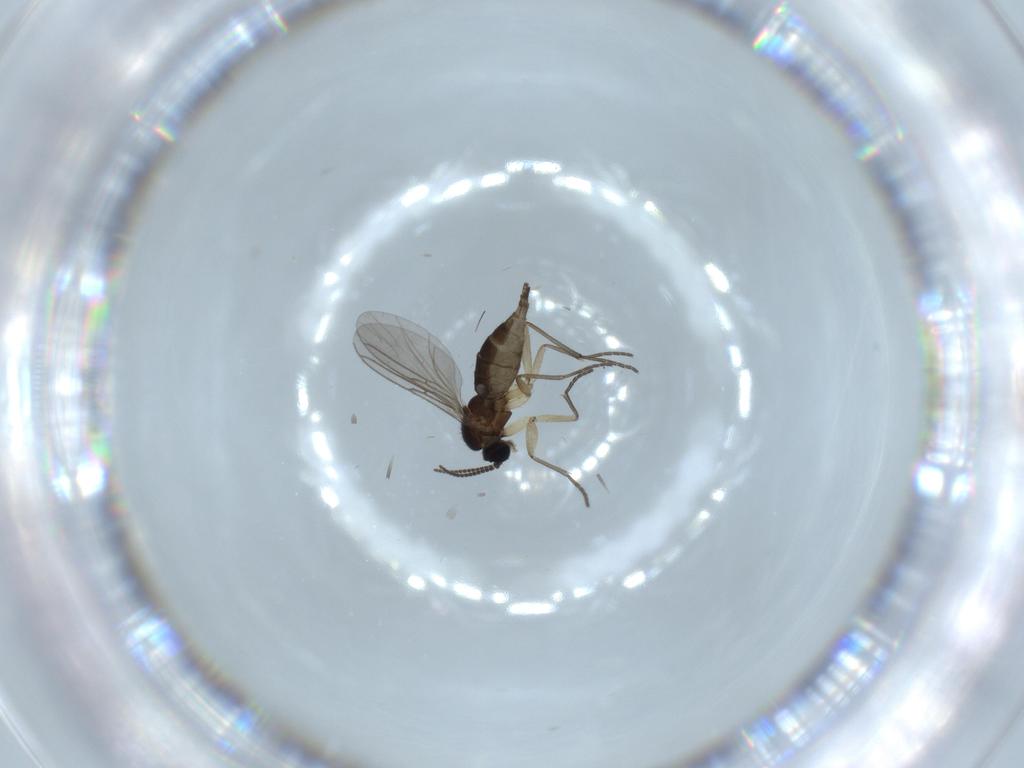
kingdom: Animalia
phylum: Arthropoda
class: Insecta
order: Diptera
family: Sciaridae
